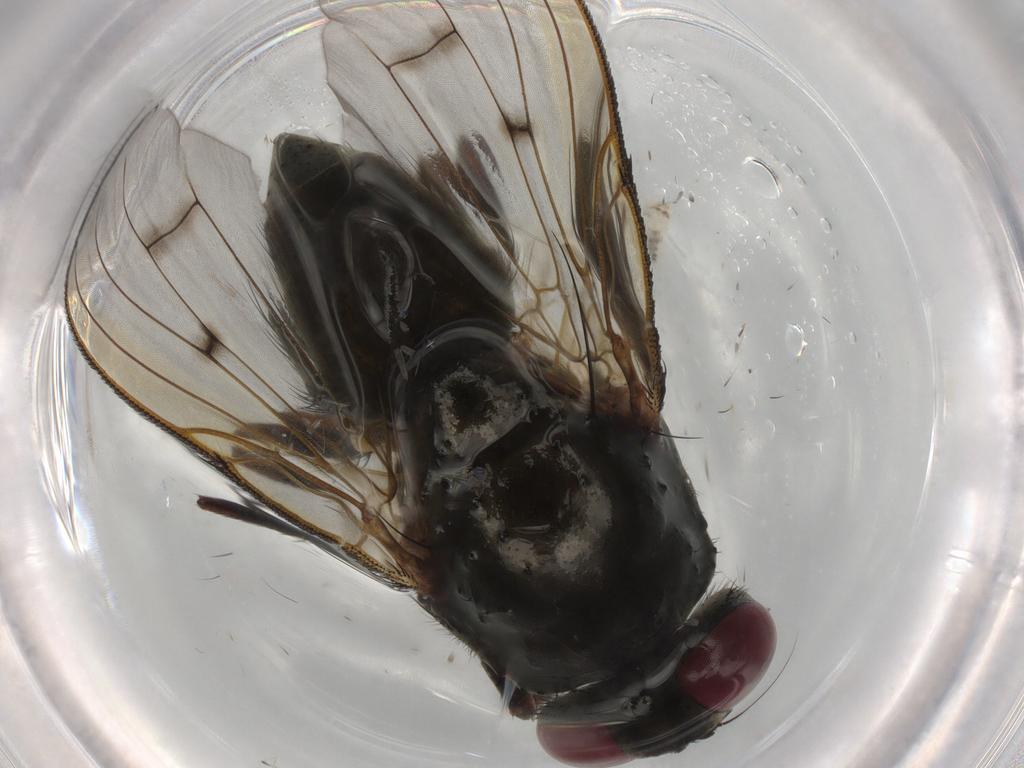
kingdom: Animalia
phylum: Arthropoda
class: Insecta
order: Diptera
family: Muscidae
